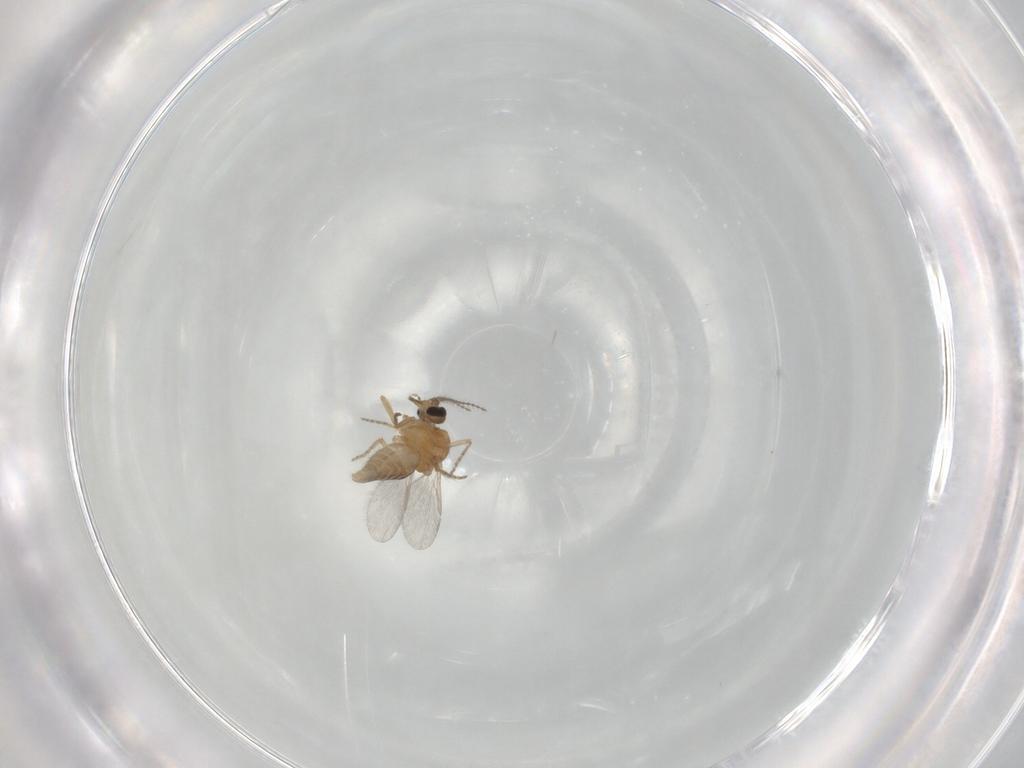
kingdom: Animalia
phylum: Arthropoda
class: Insecta
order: Diptera
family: Ceratopogonidae
